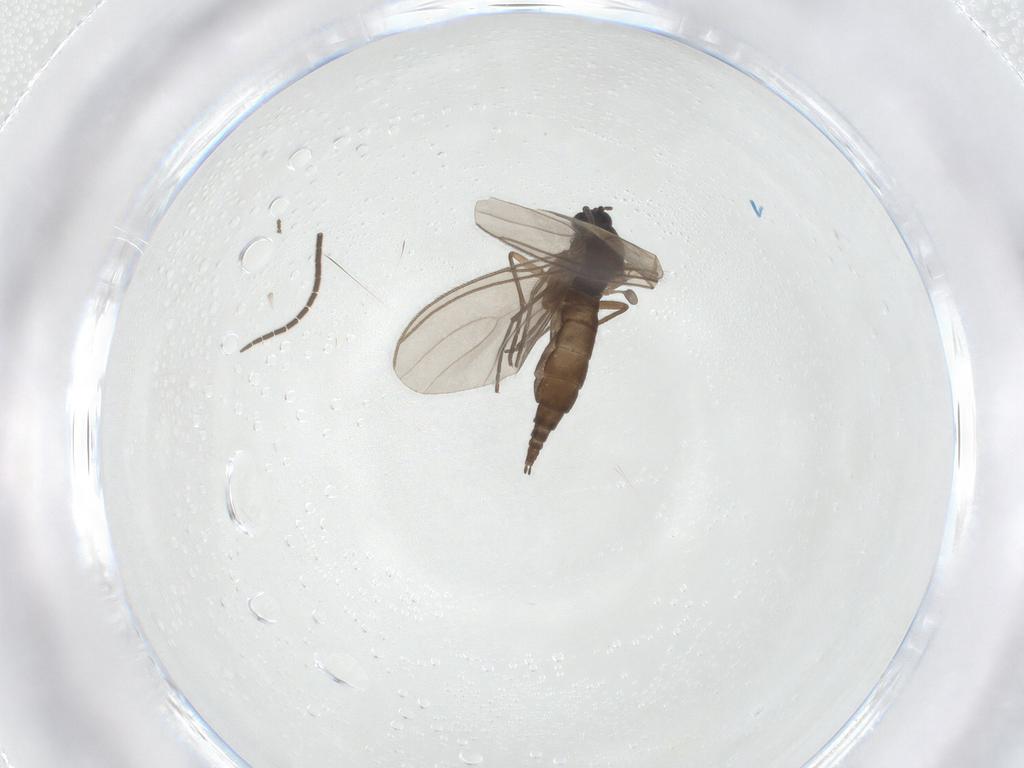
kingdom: Animalia
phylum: Arthropoda
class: Insecta
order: Diptera
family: Sciaridae
